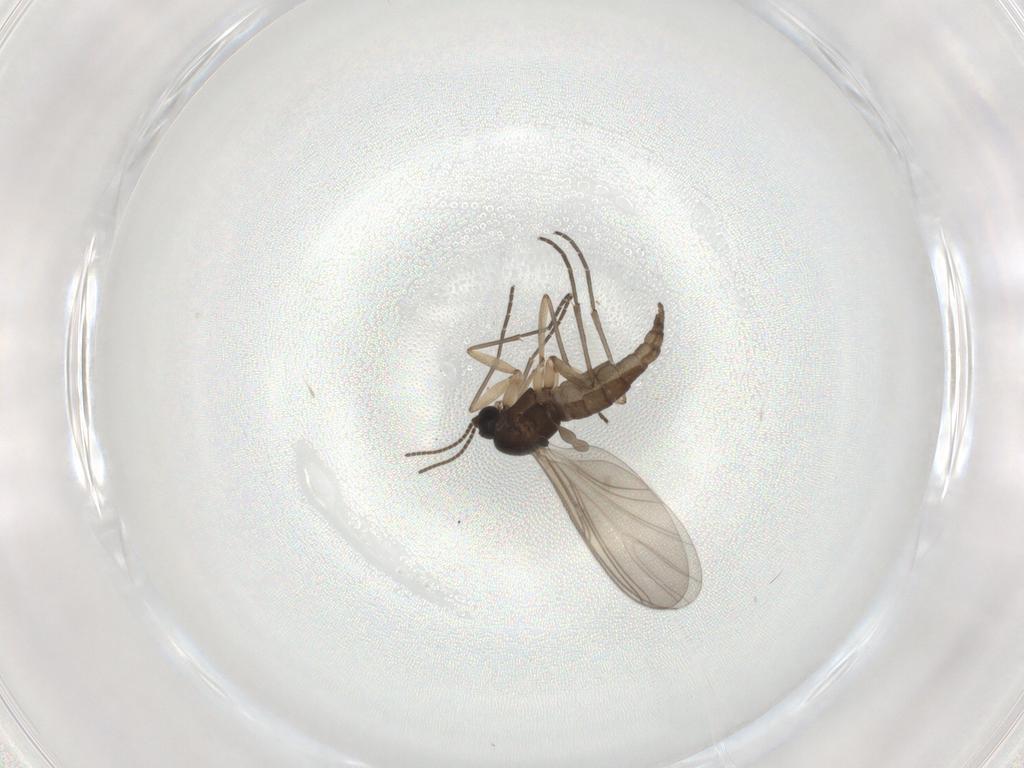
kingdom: Animalia
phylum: Arthropoda
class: Insecta
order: Diptera
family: Sciaridae
